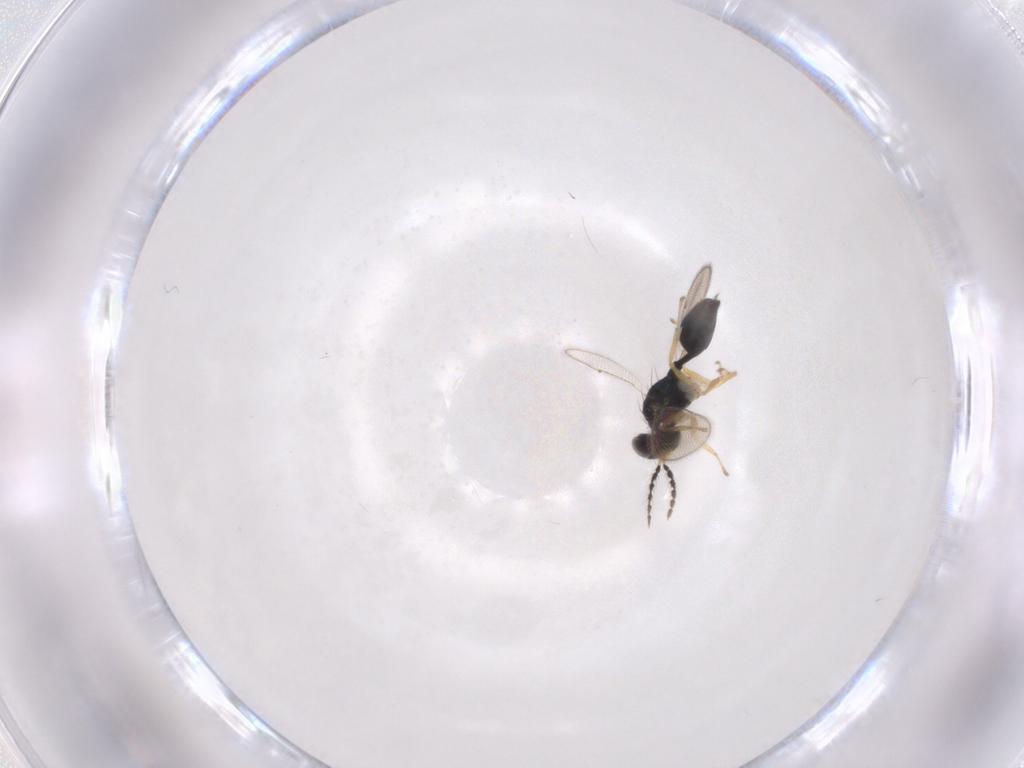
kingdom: Animalia
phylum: Arthropoda
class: Insecta
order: Hymenoptera
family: Eulophidae
